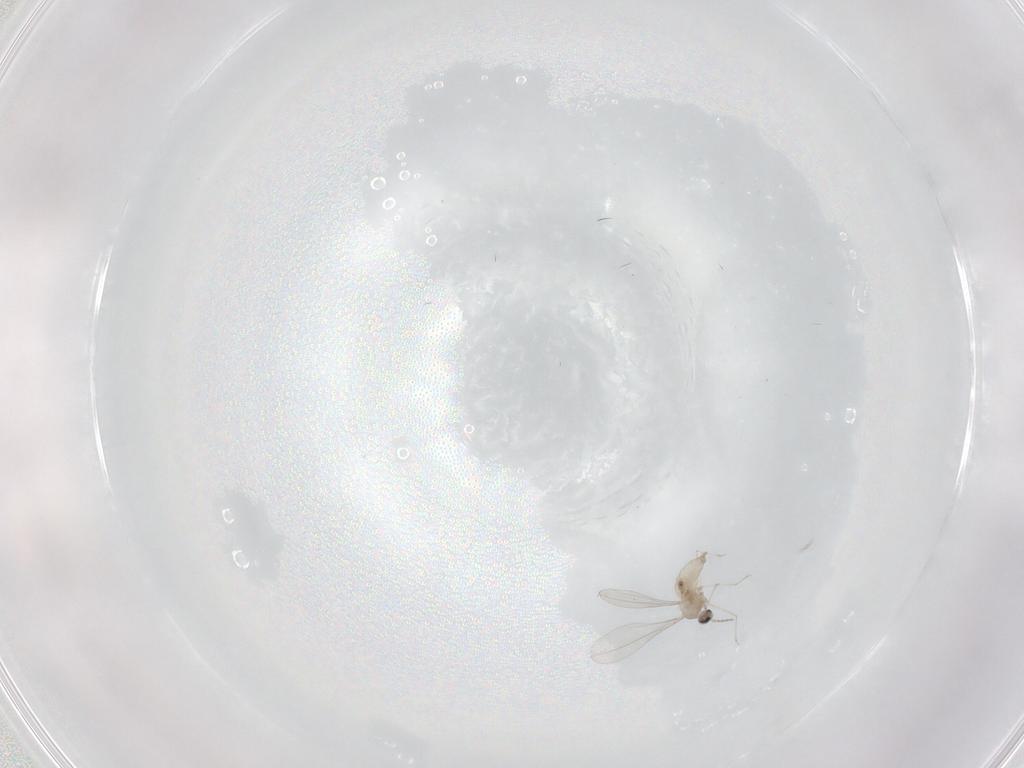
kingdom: Animalia
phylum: Arthropoda
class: Insecta
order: Diptera
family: Cecidomyiidae
